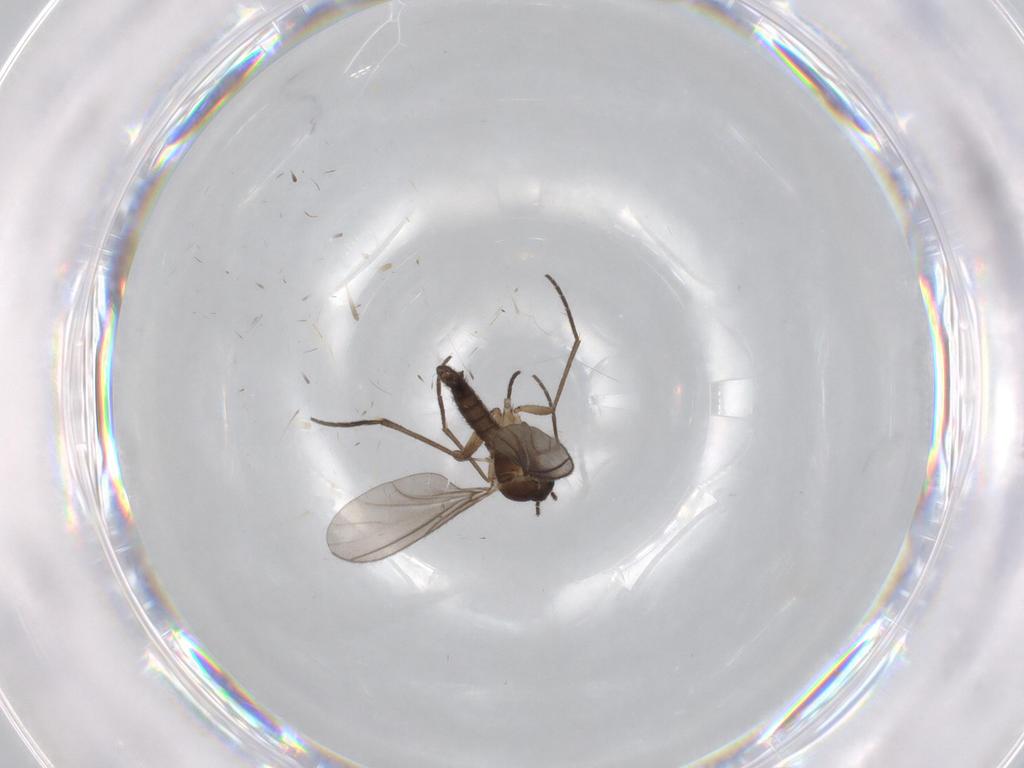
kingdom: Animalia
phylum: Arthropoda
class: Insecta
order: Diptera
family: Sciaridae
